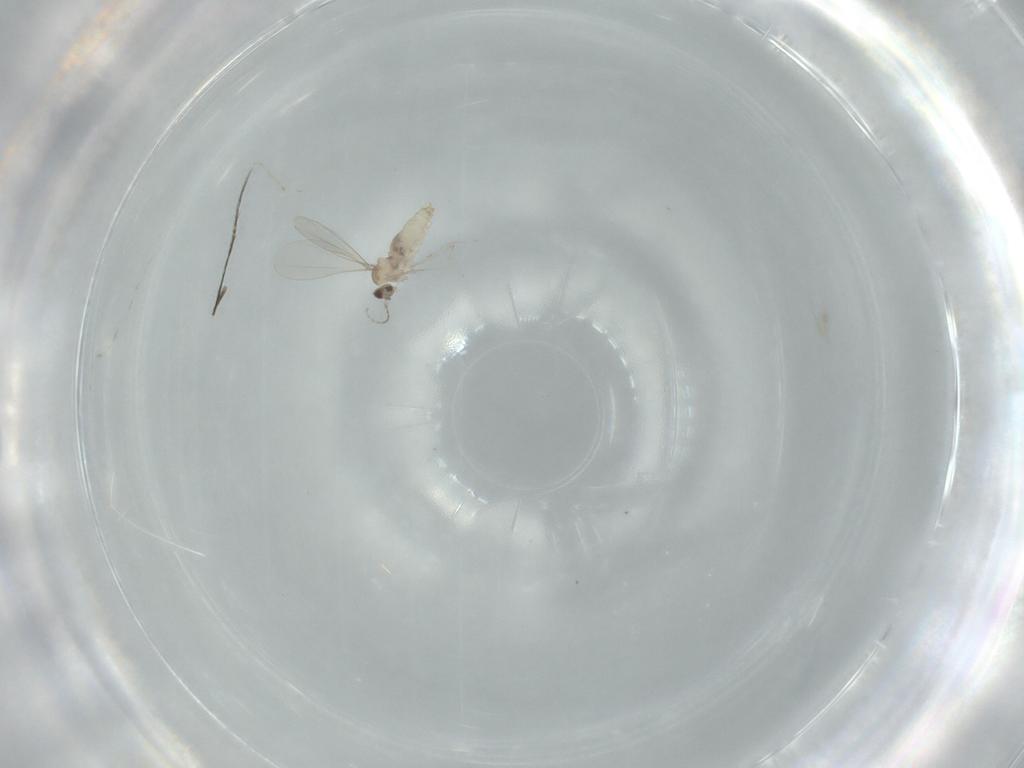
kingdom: Animalia
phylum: Arthropoda
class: Insecta
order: Diptera
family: Cecidomyiidae
